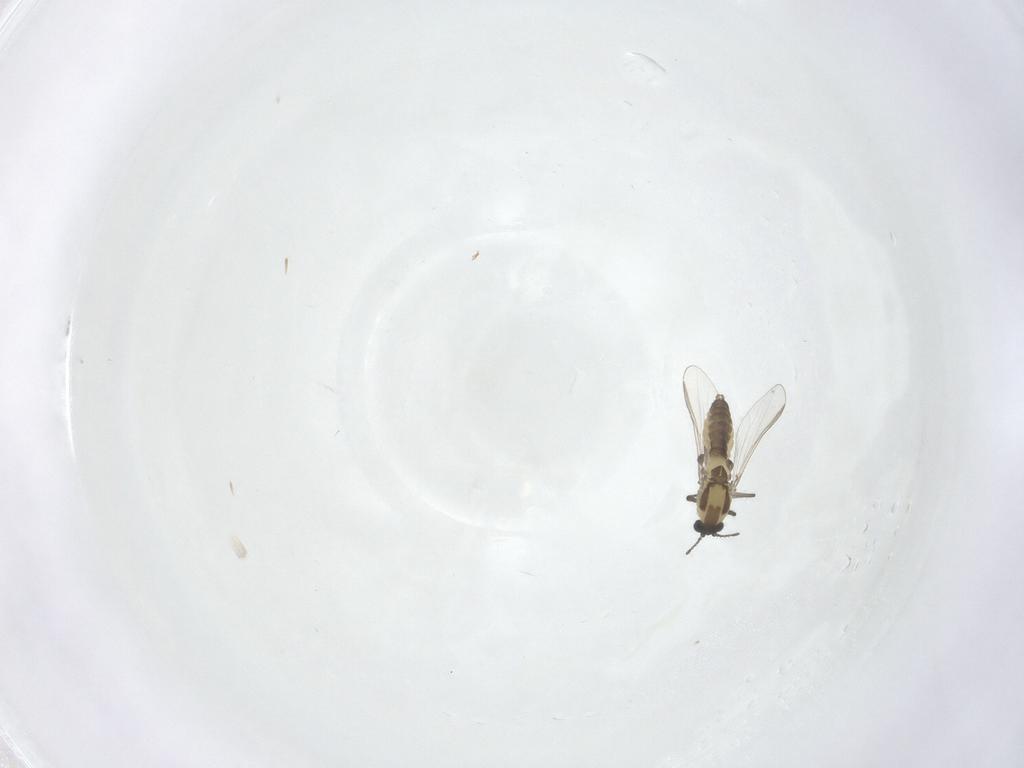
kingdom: Animalia
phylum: Arthropoda
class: Insecta
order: Diptera
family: Chironomidae
